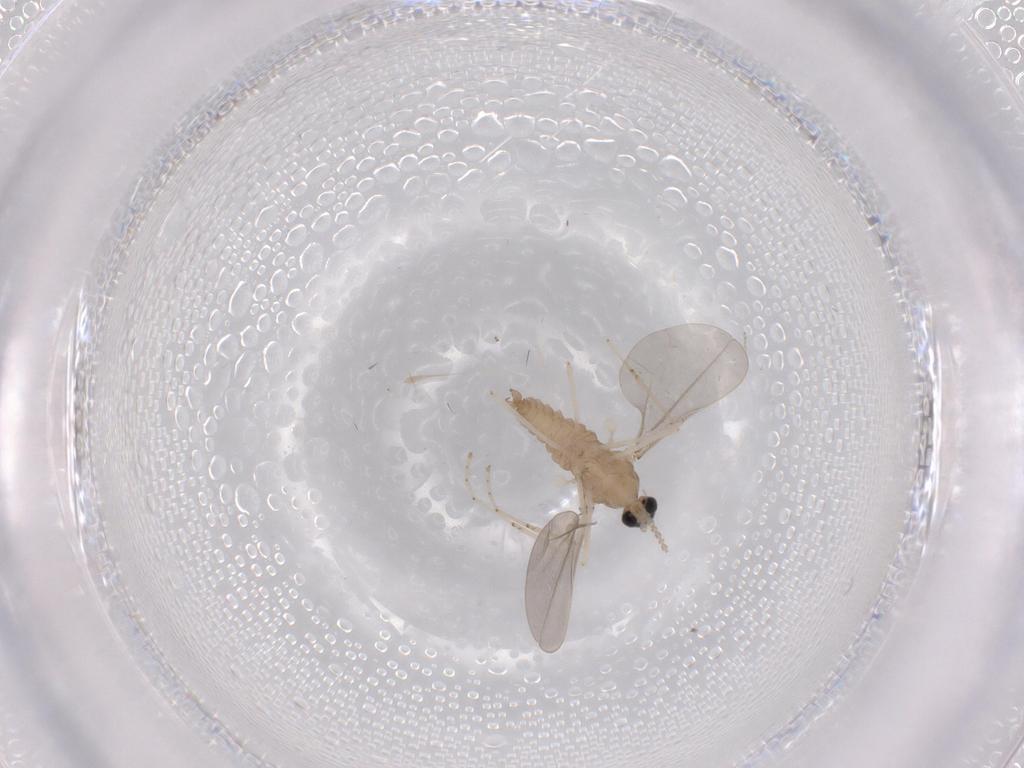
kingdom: Animalia
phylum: Arthropoda
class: Insecta
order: Diptera
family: Cecidomyiidae
